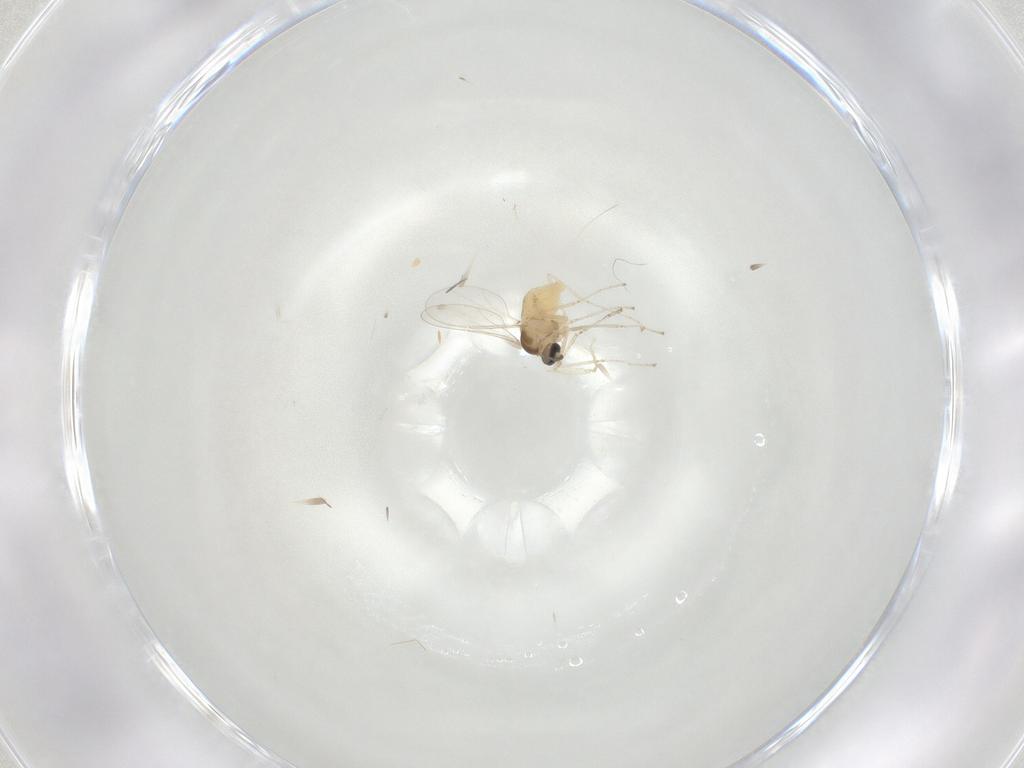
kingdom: Animalia
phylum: Arthropoda
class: Insecta
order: Diptera
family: Cecidomyiidae
